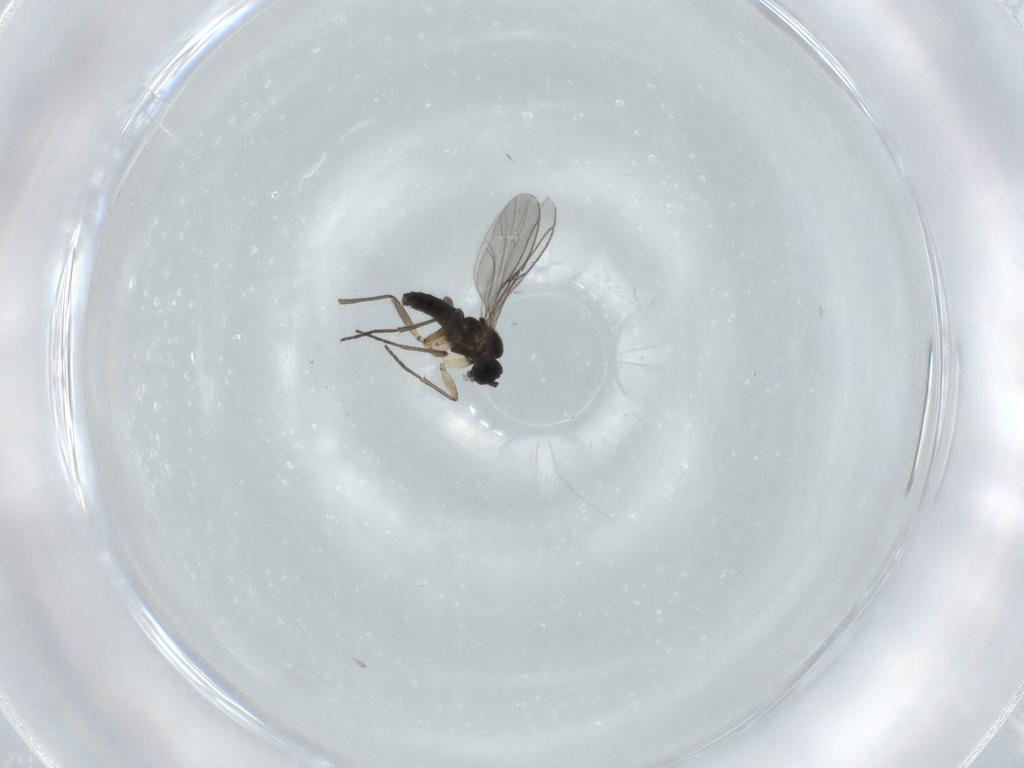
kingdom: Animalia
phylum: Arthropoda
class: Insecta
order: Diptera
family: Sciaridae
